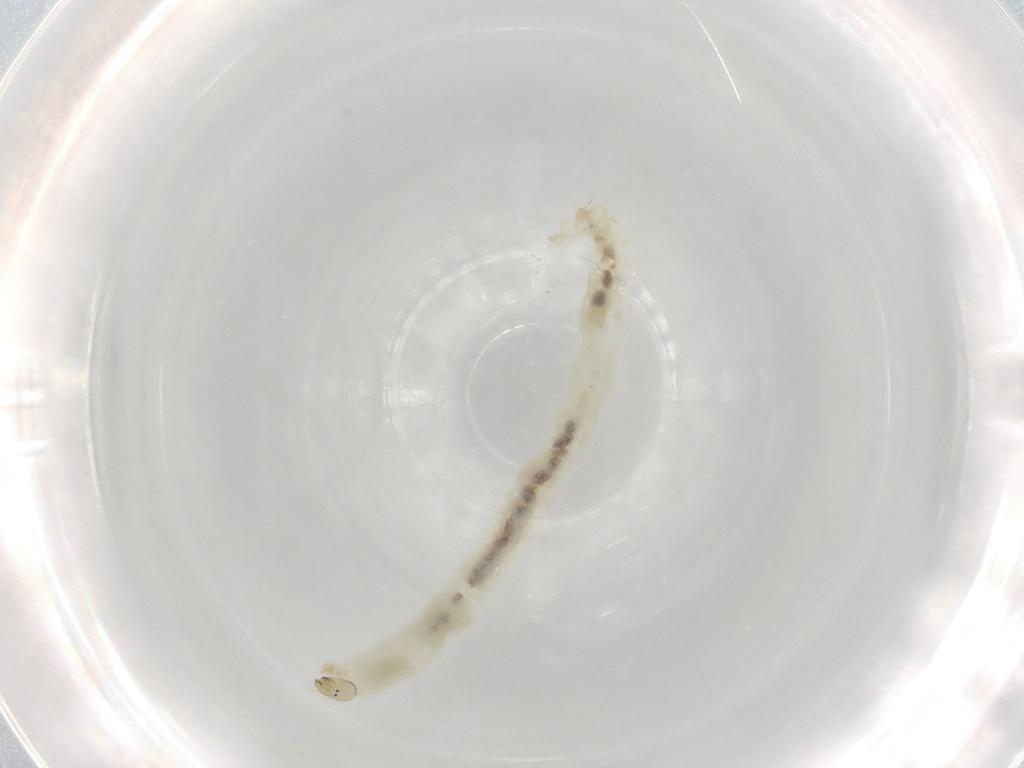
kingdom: Animalia
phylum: Arthropoda
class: Insecta
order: Diptera
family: Chironomidae
